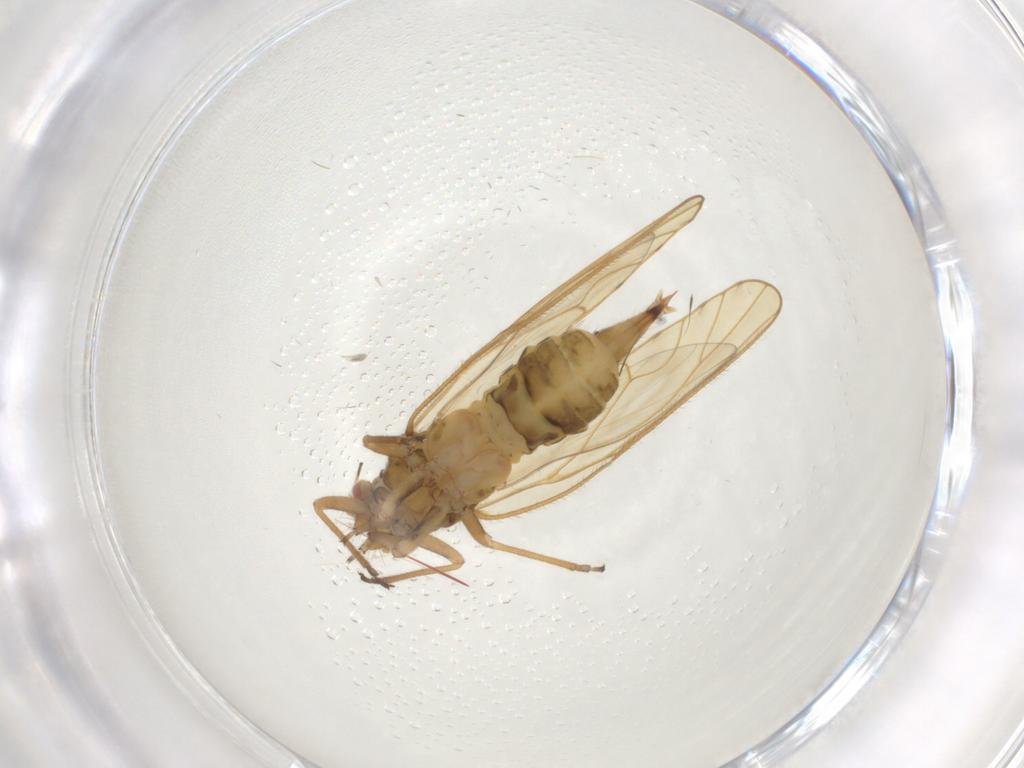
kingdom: Animalia
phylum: Arthropoda
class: Insecta
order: Hemiptera
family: Psyllidae
